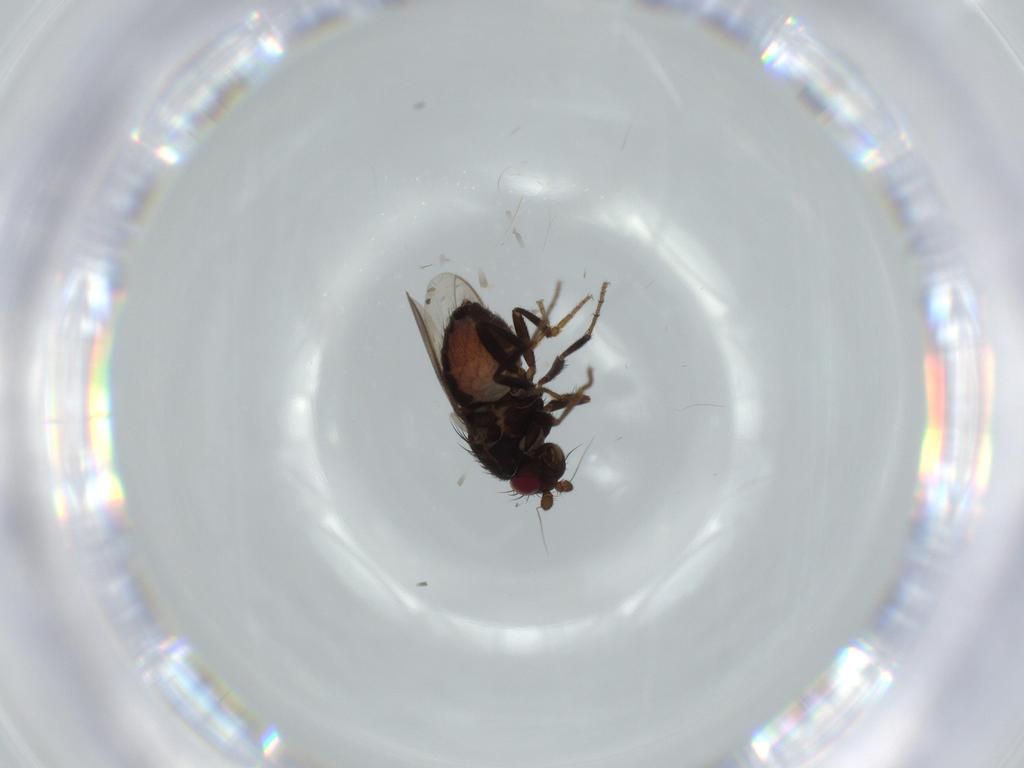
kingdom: Animalia
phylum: Arthropoda
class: Insecta
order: Diptera
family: Sphaeroceridae
